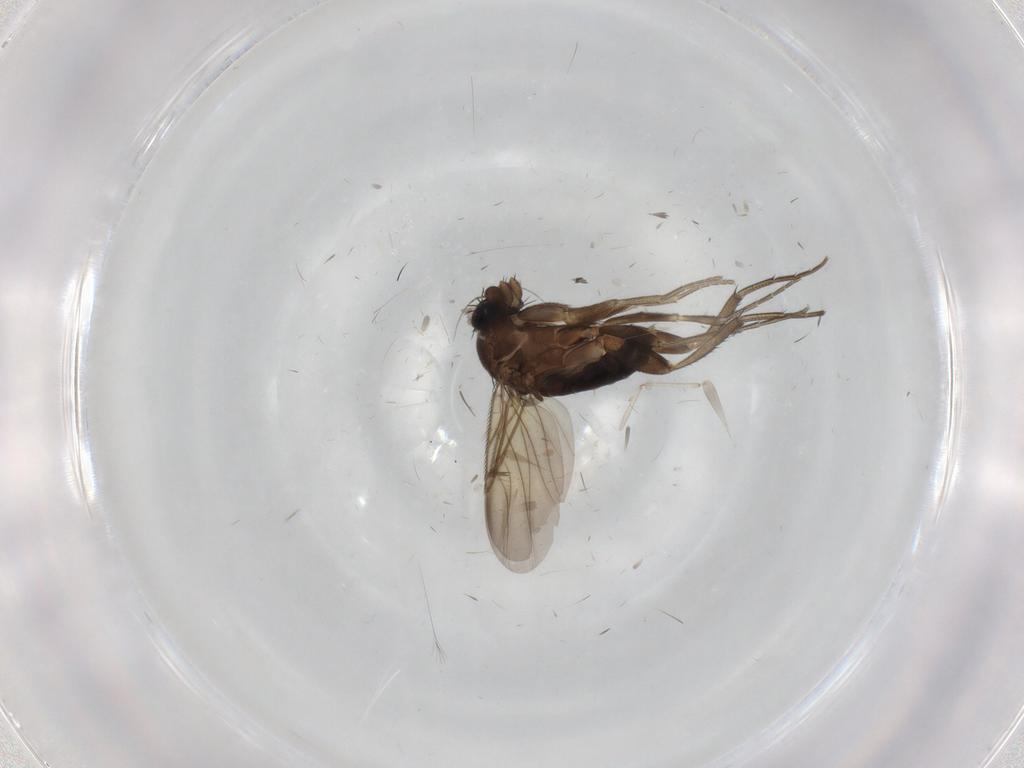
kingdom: Animalia
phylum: Arthropoda
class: Insecta
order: Diptera
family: Phoridae
